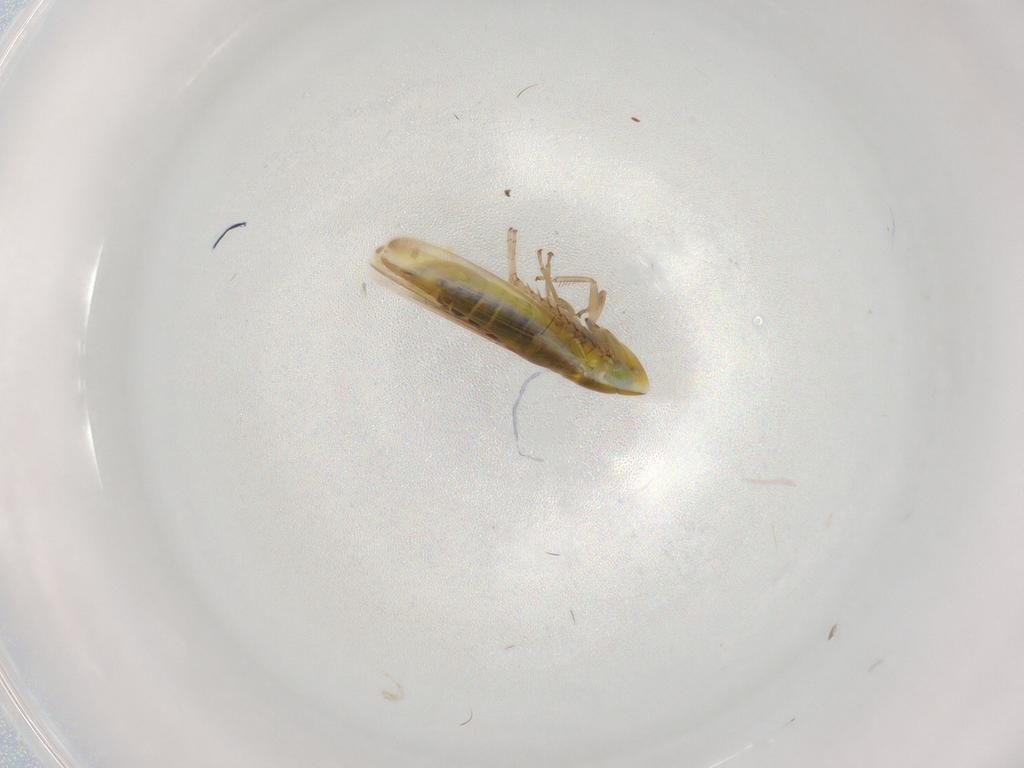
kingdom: Animalia
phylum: Arthropoda
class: Insecta
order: Hemiptera
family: Cicadellidae
